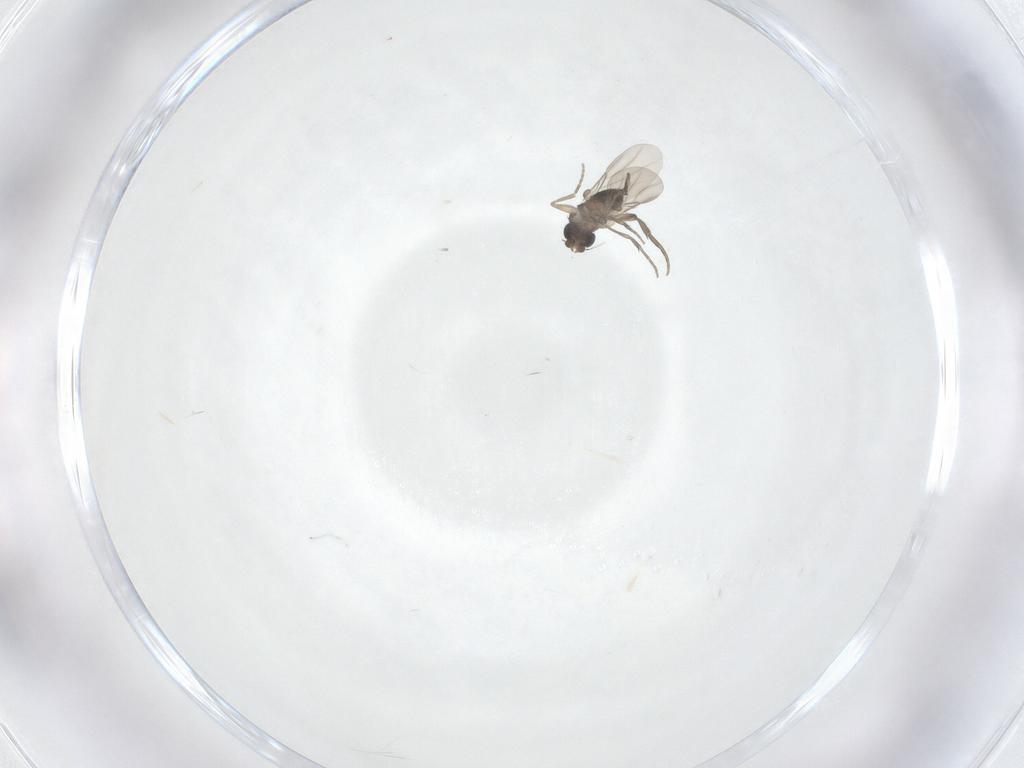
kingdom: Animalia
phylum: Arthropoda
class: Insecta
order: Diptera
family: Phoridae
